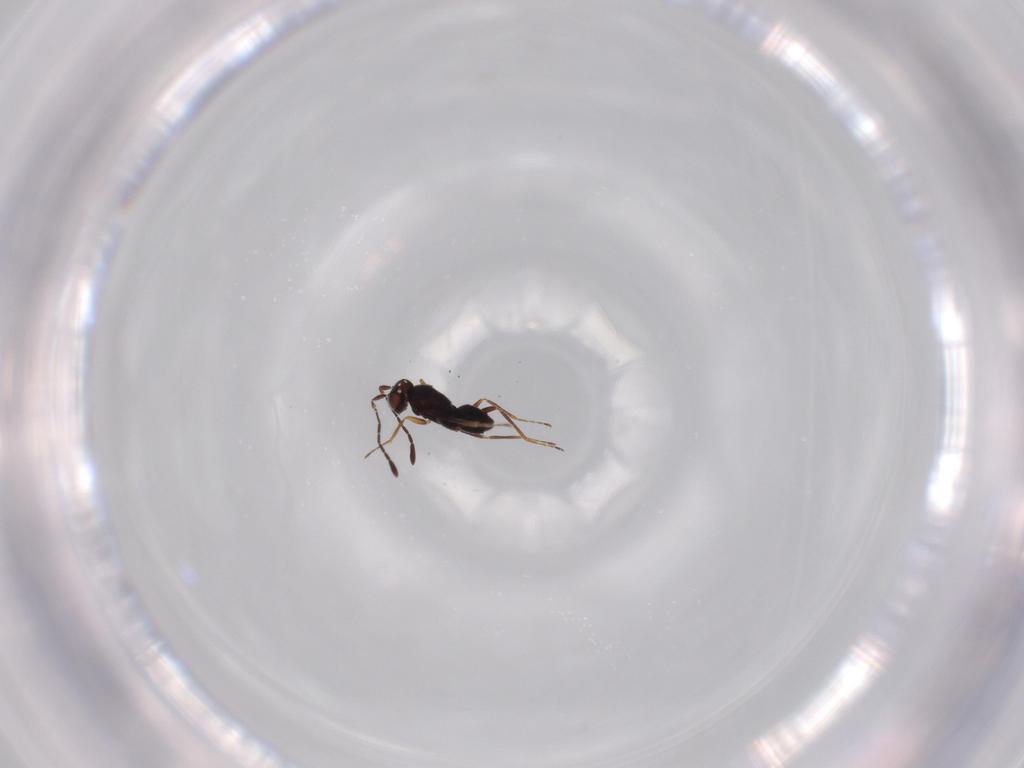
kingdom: Animalia
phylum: Arthropoda
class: Insecta
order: Hymenoptera
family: Mymaridae
